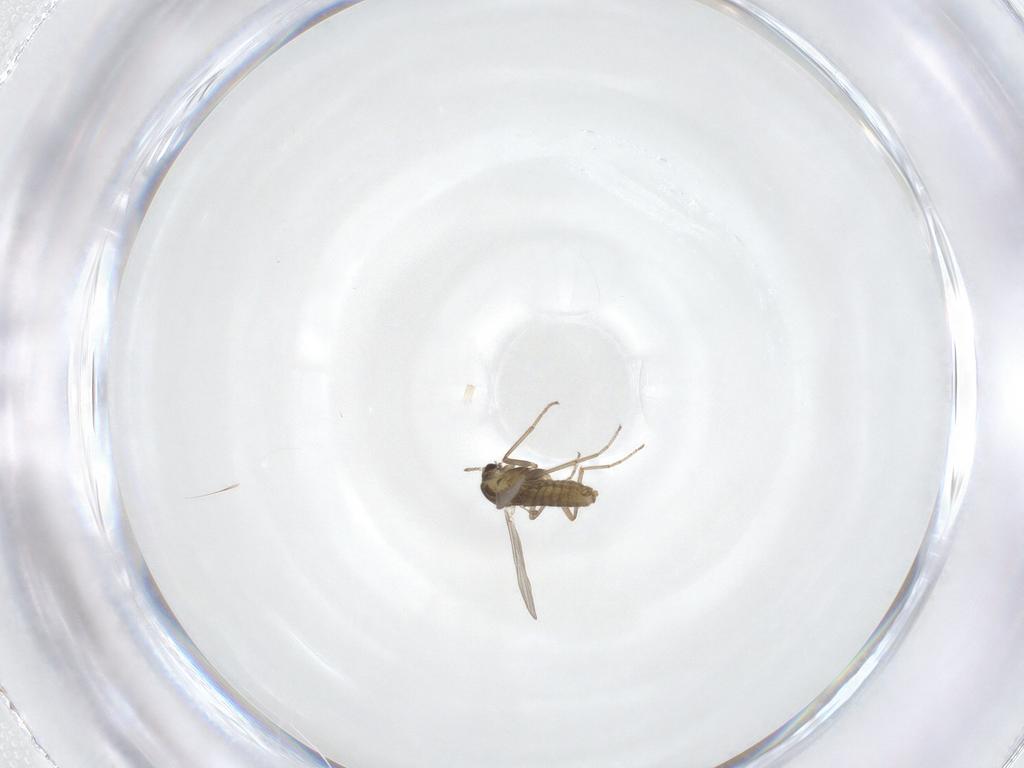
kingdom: Animalia
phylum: Arthropoda
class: Insecta
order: Diptera
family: Chironomidae
